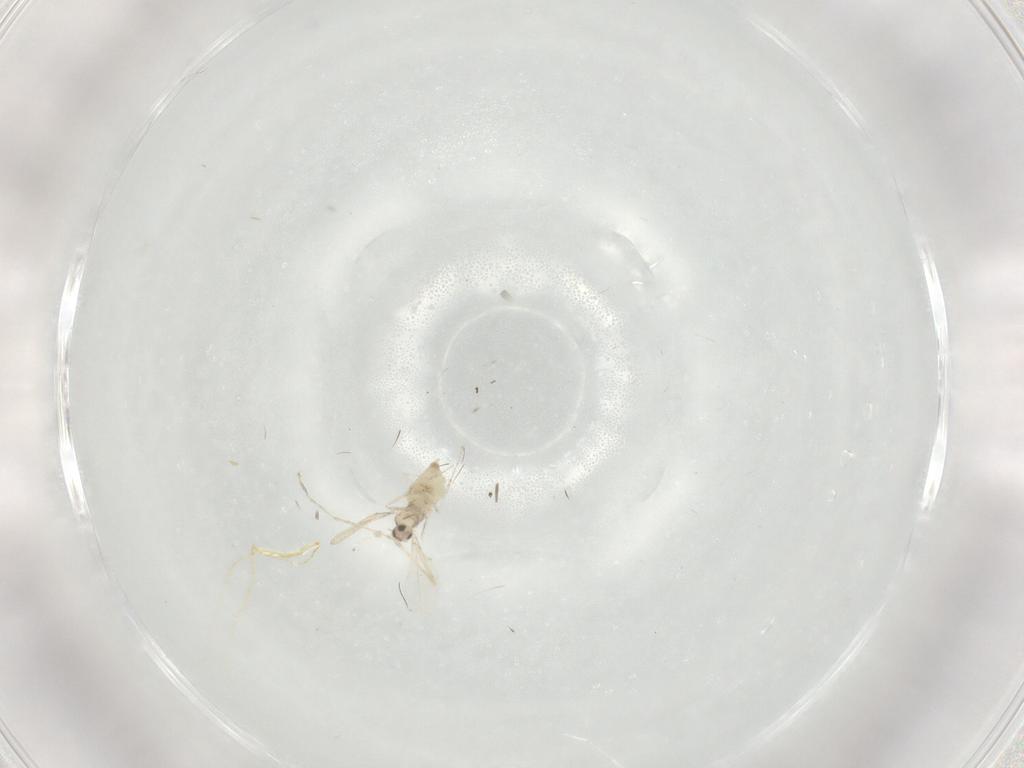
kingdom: Animalia
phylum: Arthropoda
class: Insecta
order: Diptera
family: Cecidomyiidae
